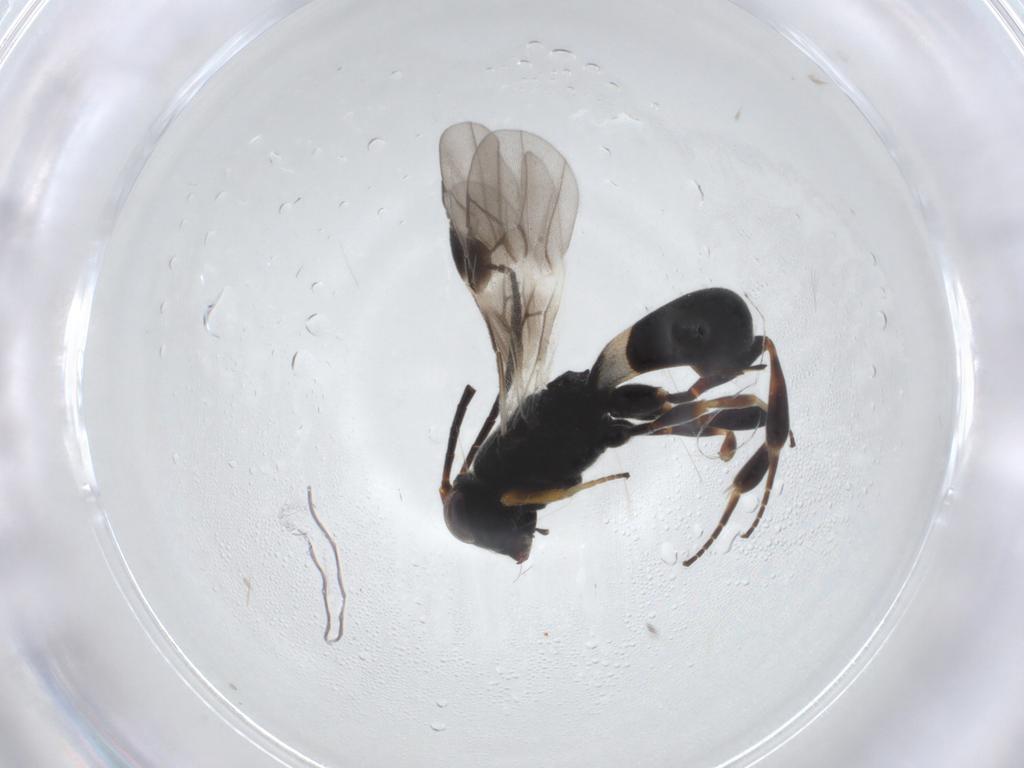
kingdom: Animalia
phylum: Arthropoda
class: Insecta
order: Hymenoptera
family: Braconidae
